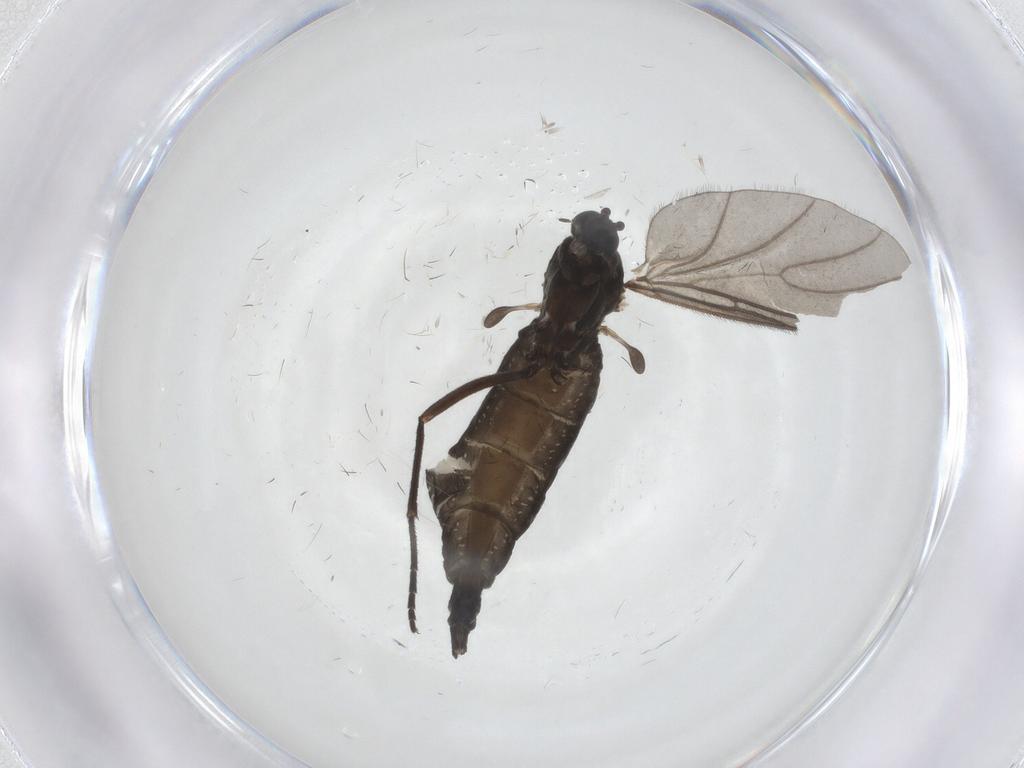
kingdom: Animalia
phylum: Arthropoda
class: Insecta
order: Diptera
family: Sciaridae
